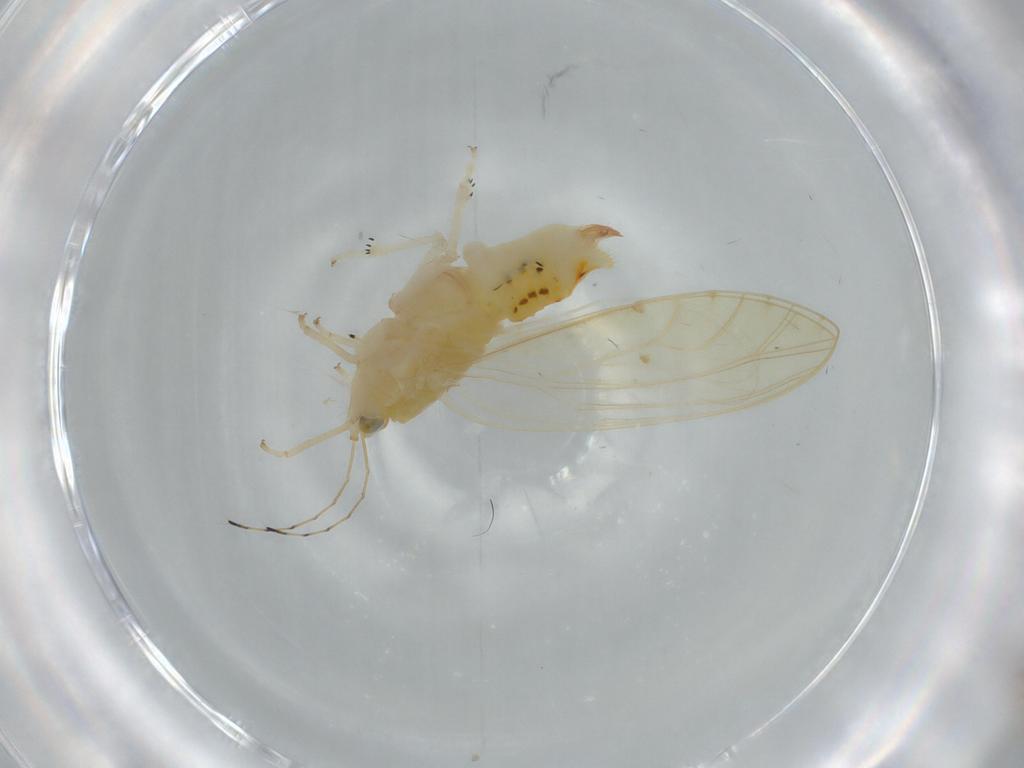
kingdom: Animalia
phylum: Arthropoda
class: Insecta
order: Hemiptera
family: Triozidae
